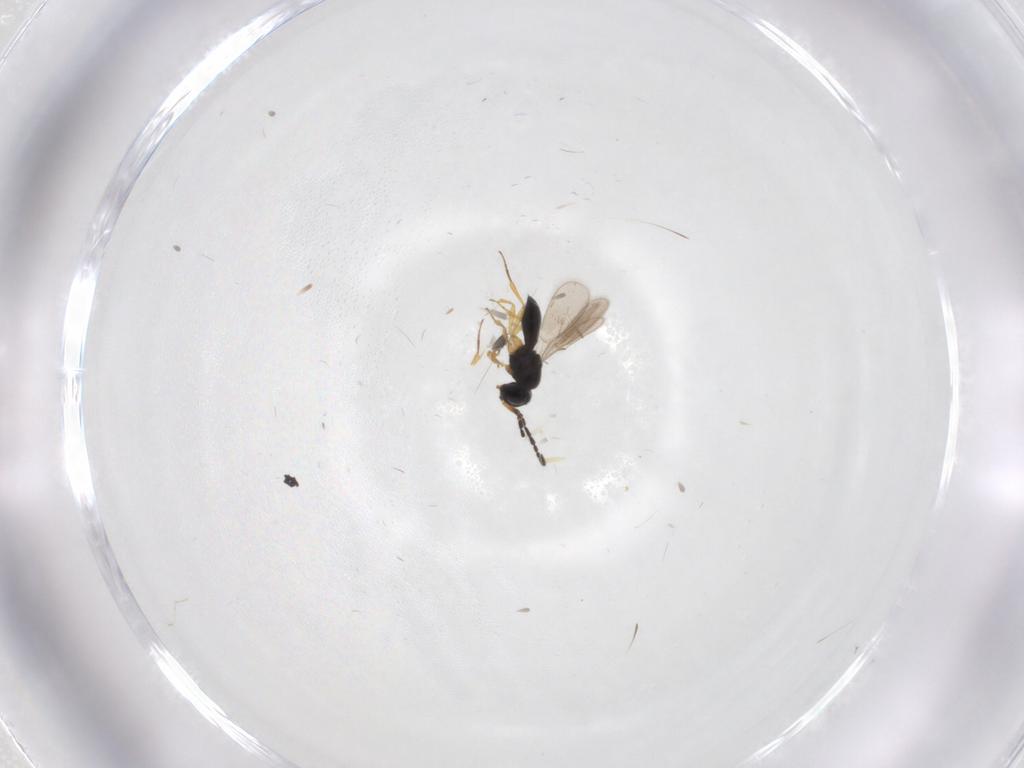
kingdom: Animalia
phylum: Arthropoda
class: Insecta
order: Hymenoptera
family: Scelionidae
